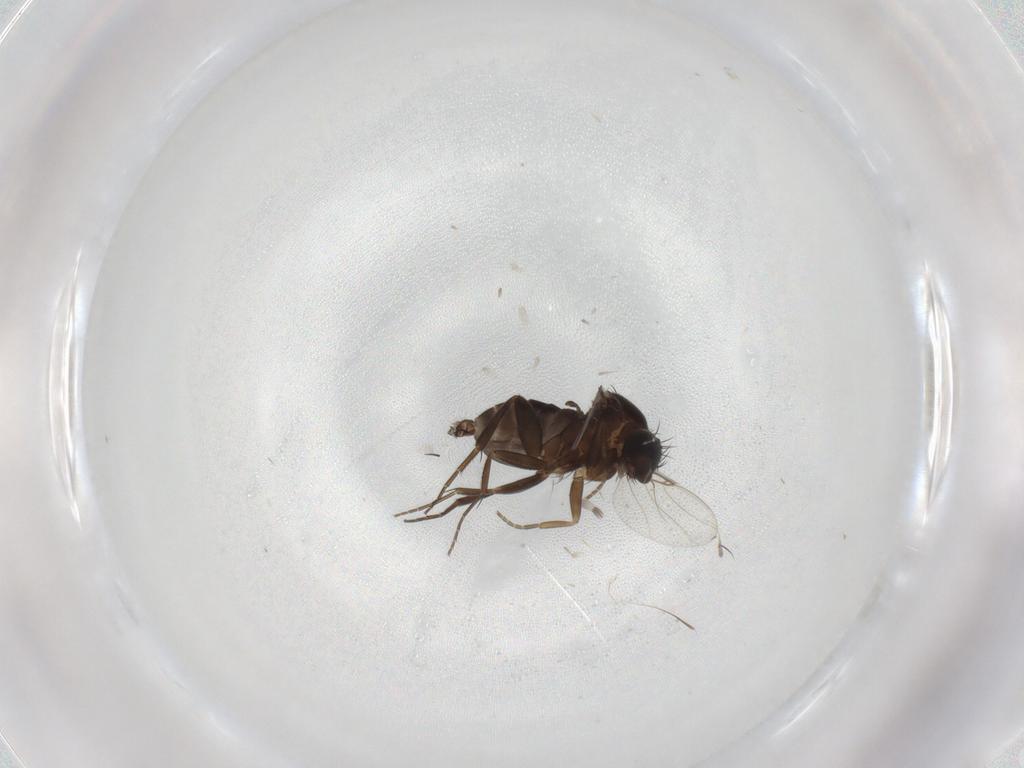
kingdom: Animalia
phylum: Arthropoda
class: Insecta
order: Diptera
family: Phoridae
